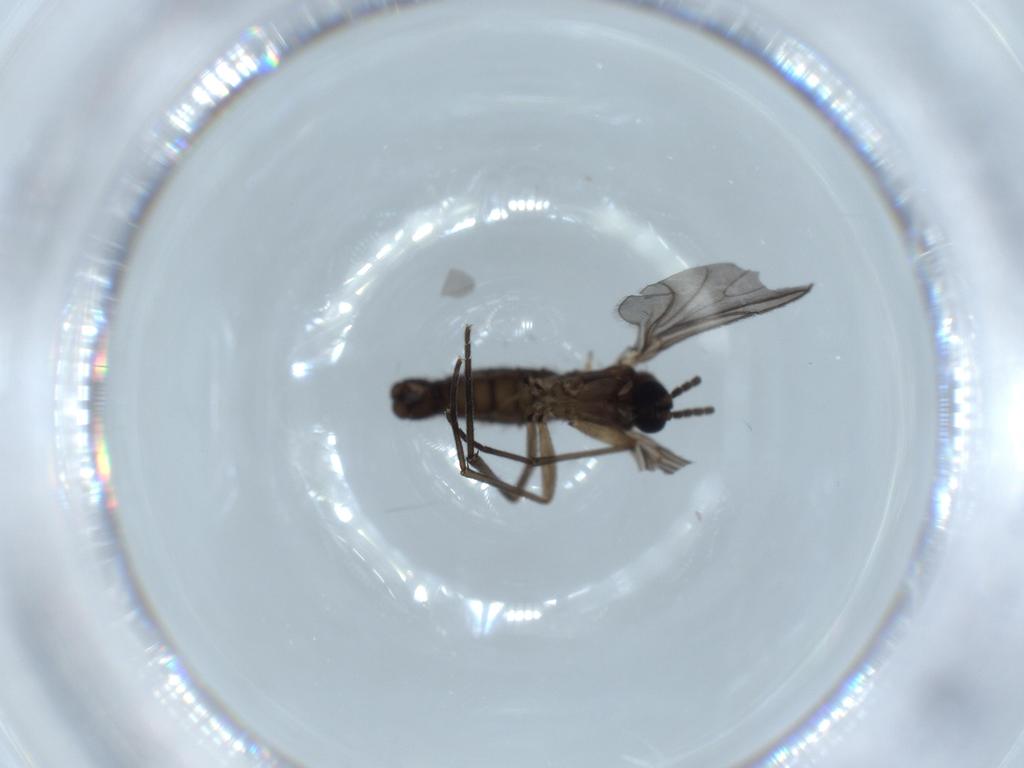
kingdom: Animalia
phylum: Arthropoda
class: Insecta
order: Diptera
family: Sciaridae
